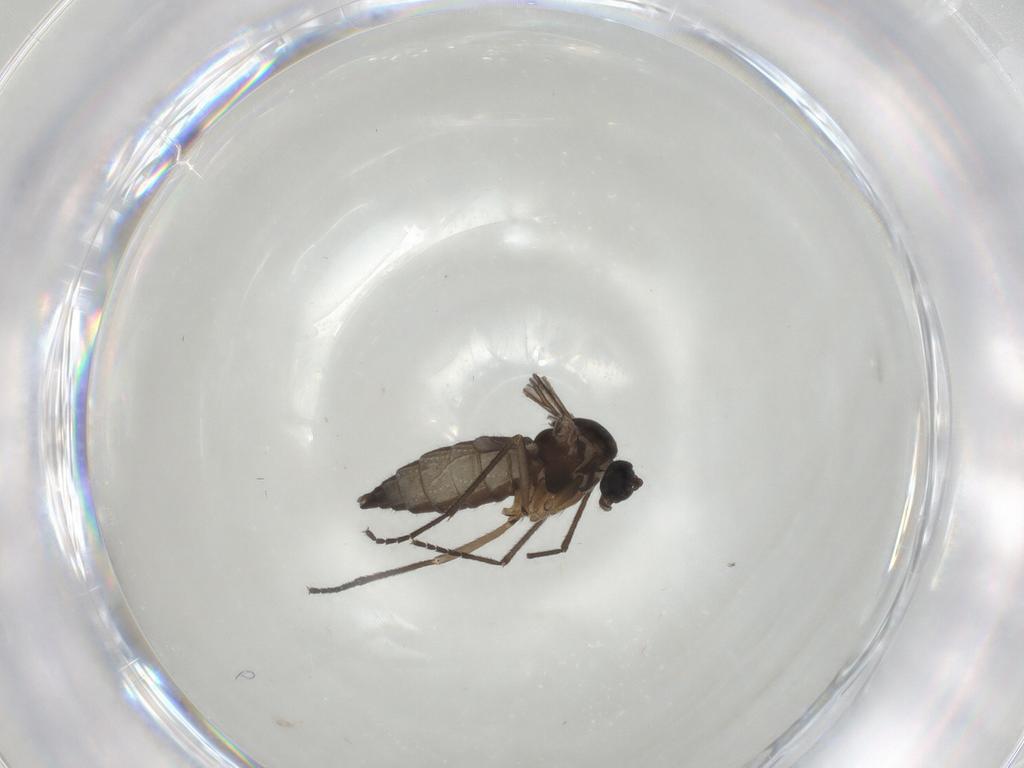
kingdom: Animalia
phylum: Arthropoda
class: Insecta
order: Diptera
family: Sciaridae
